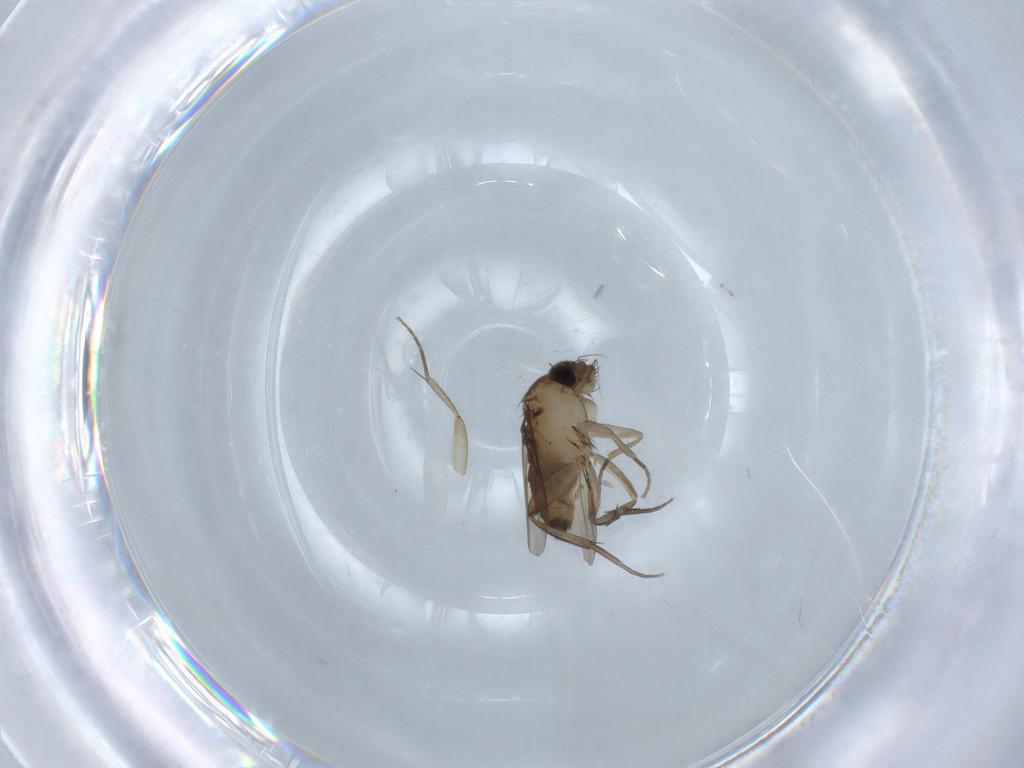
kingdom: Animalia
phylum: Arthropoda
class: Insecta
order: Diptera
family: Phoridae
